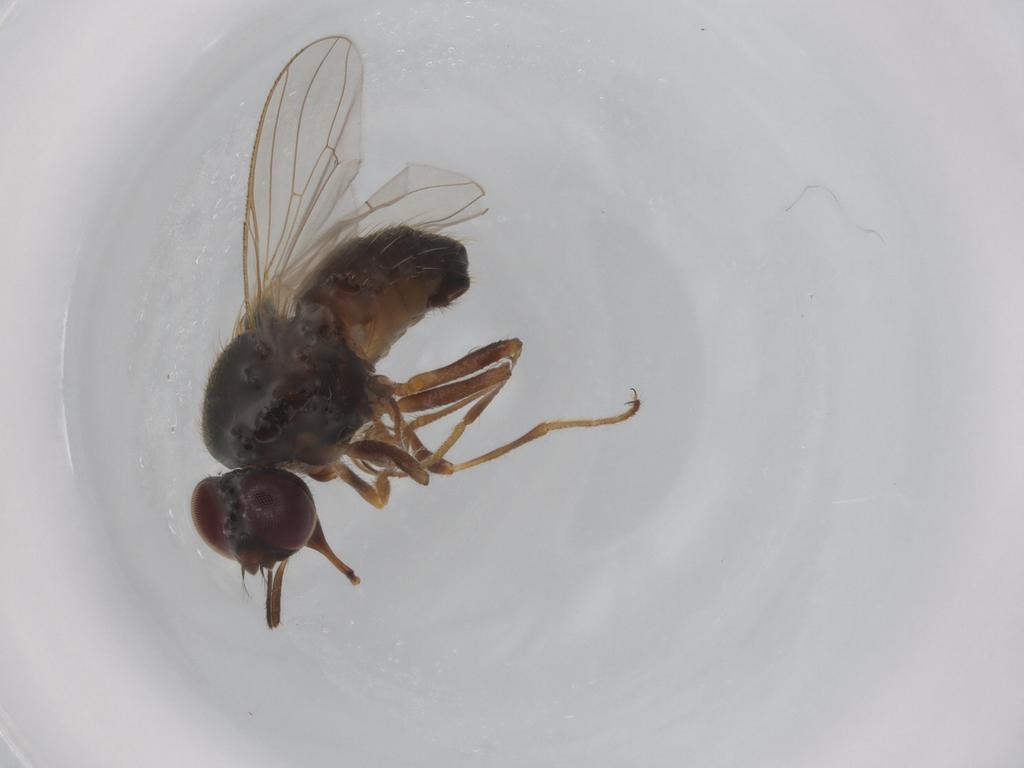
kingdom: Animalia
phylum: Arthropoda
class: Insecta
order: Diptera
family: Muscidae
